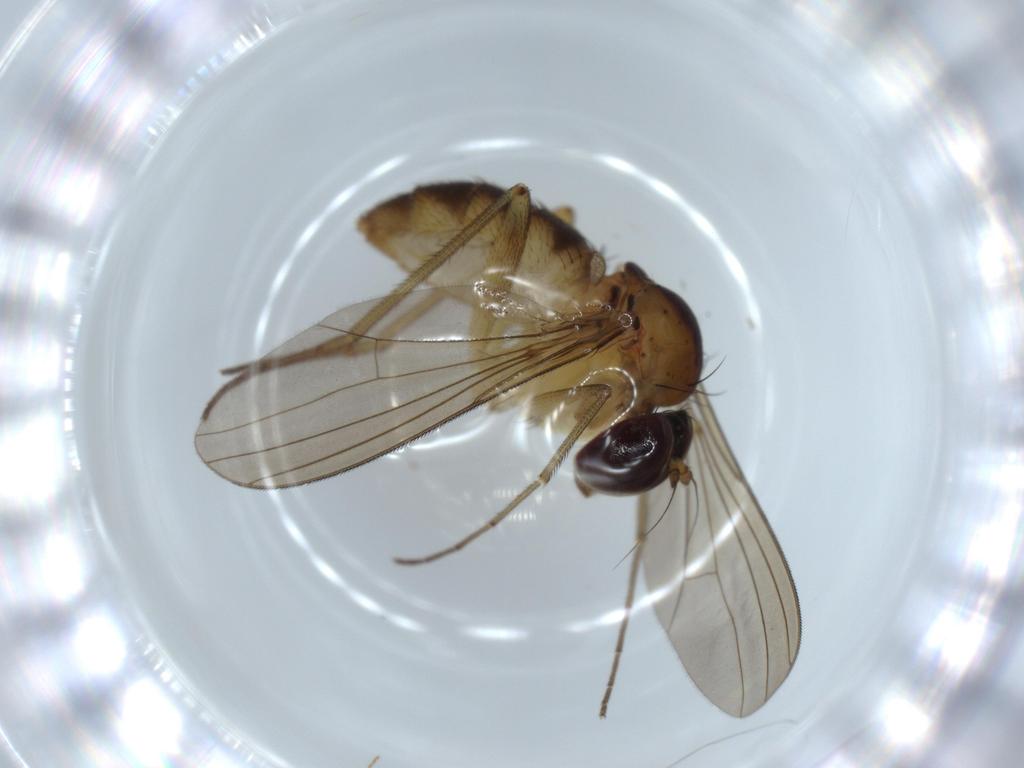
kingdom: Animalia
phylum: Arthropoda
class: Insecta
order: Diptera
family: Dolichopodidae
